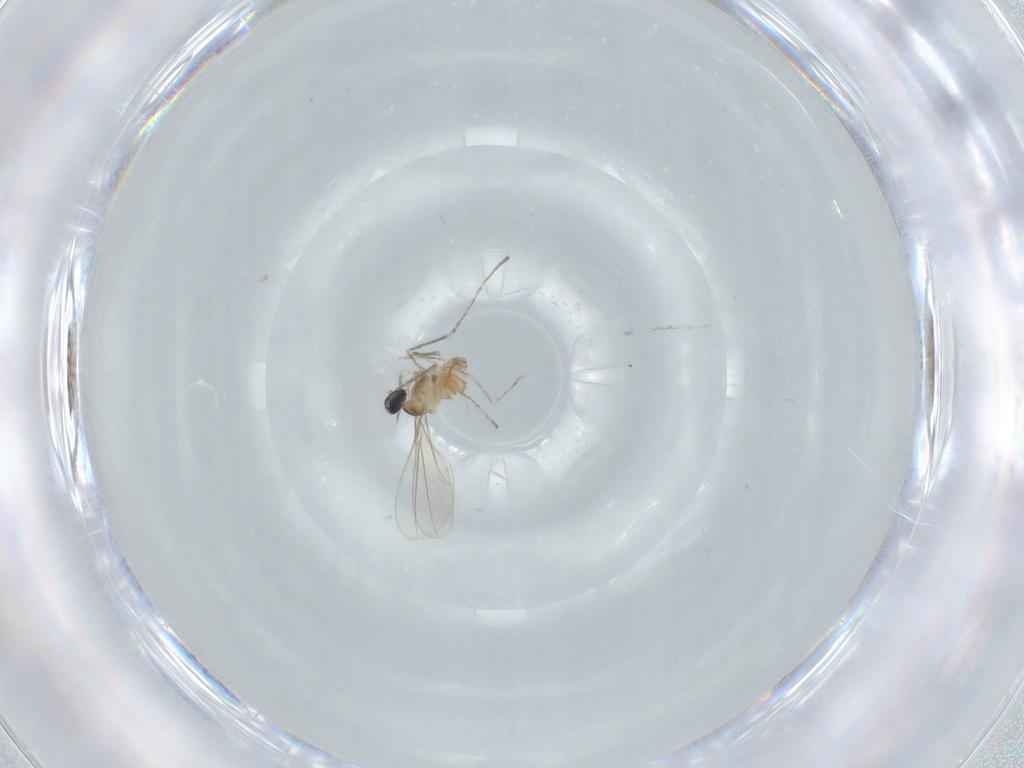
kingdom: Animalia
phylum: Arthropoda
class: Insecta
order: Diptera
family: Cecidomyiidae
